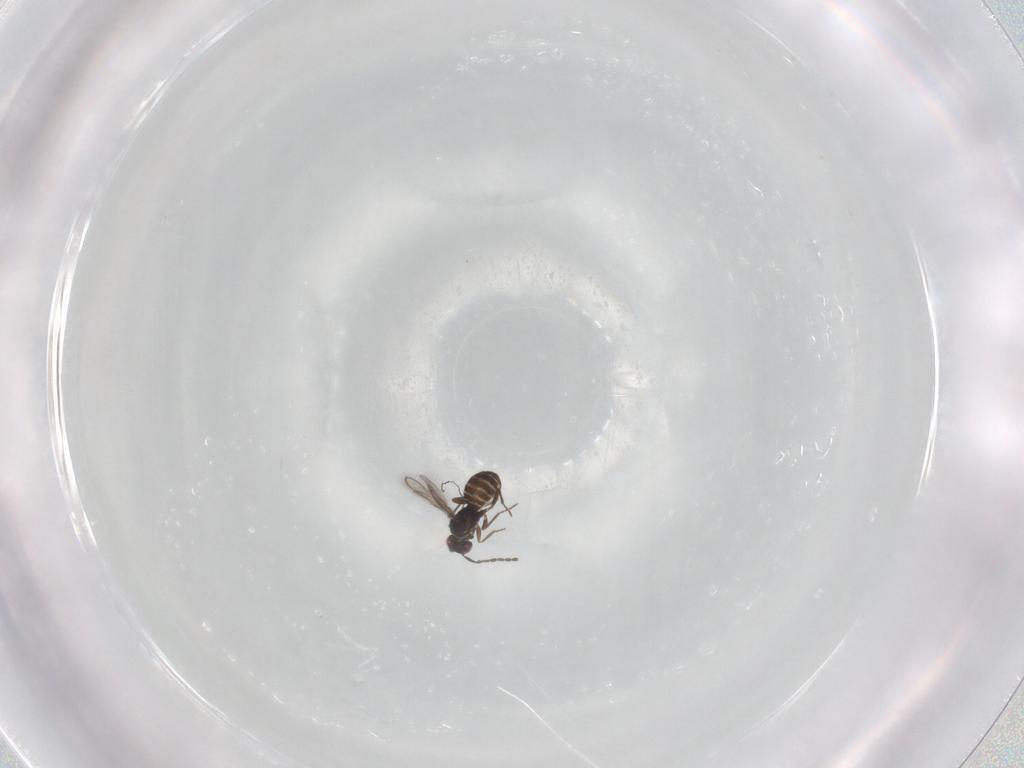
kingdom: Animalia
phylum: Arthropoda
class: Insecta
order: Hymenoptera
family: Mymaridae
